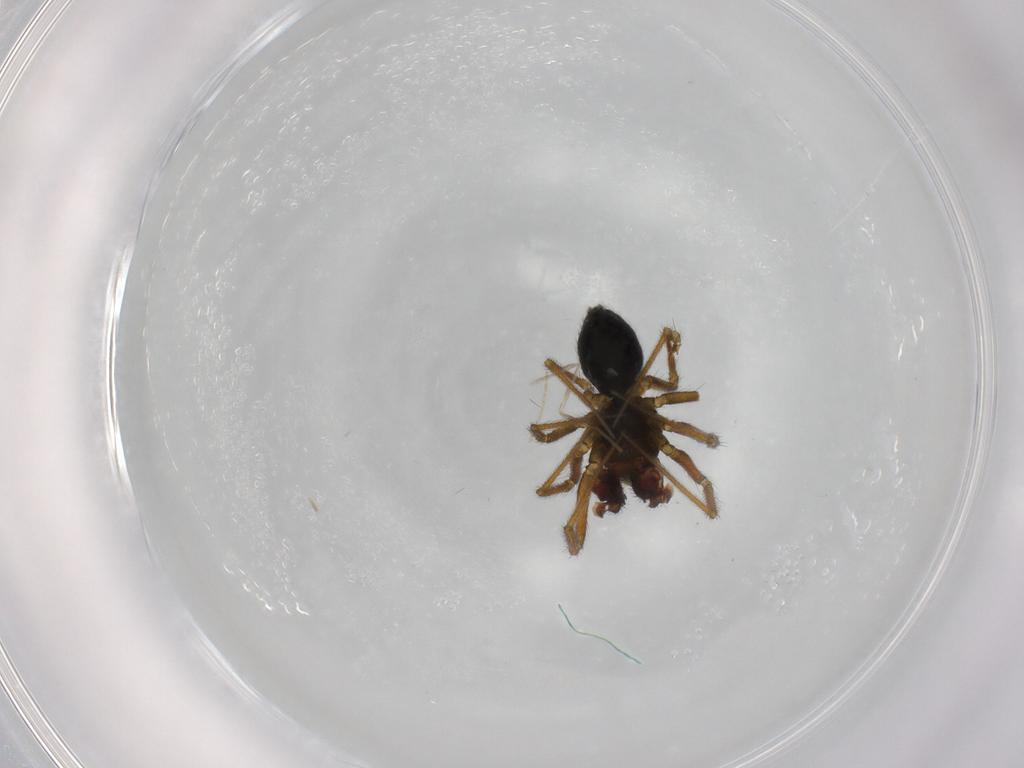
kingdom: Animalia
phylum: Arthropoda
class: Arachnida
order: Araneae
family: Linyphiidae
